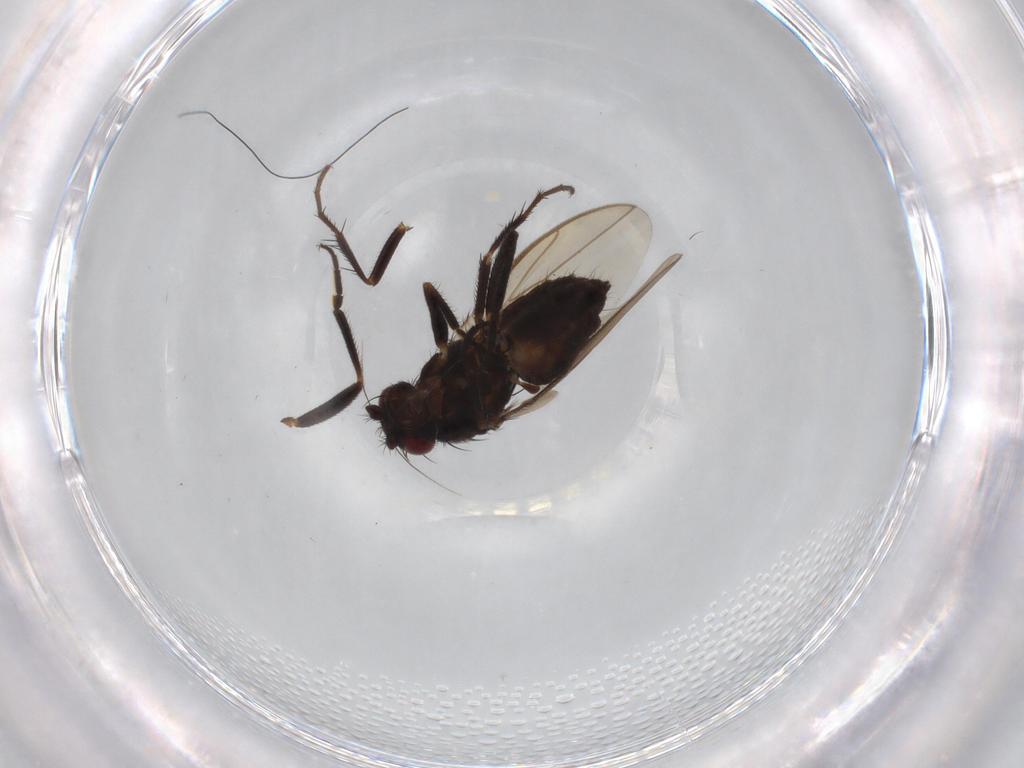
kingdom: Animalia
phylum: Arthropoda
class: Insecta
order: Diptera
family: Sphaeroceridae
